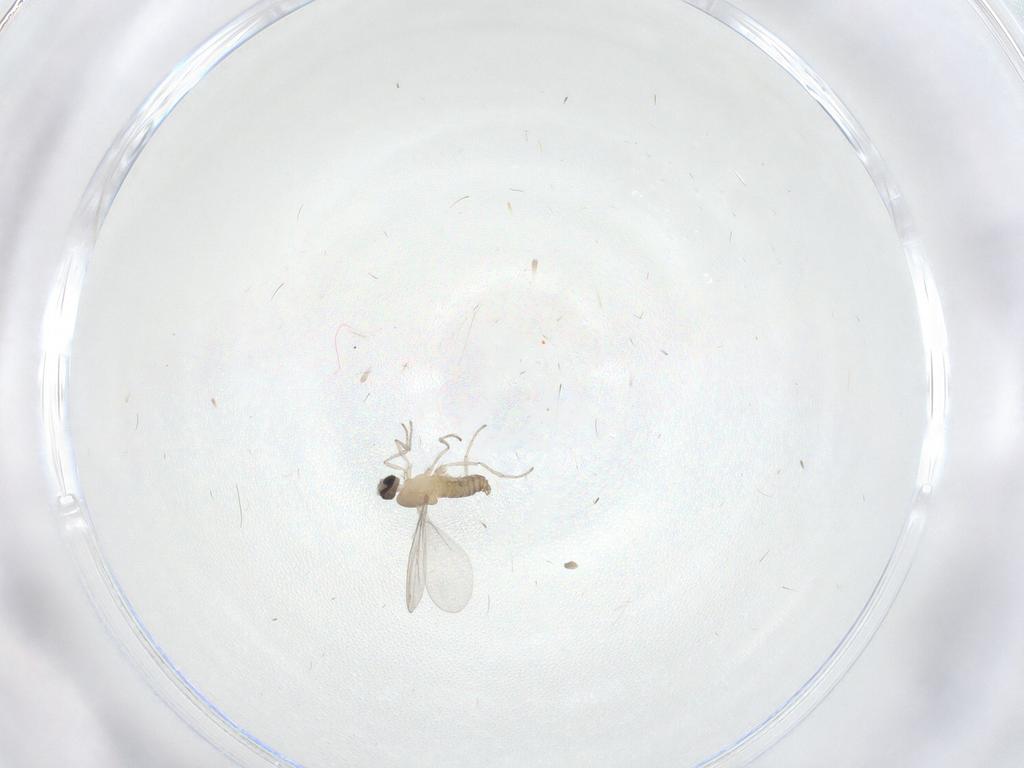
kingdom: Animalia
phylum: Arthropoda
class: Insecta
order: Diptera
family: Cecidomyiidae
